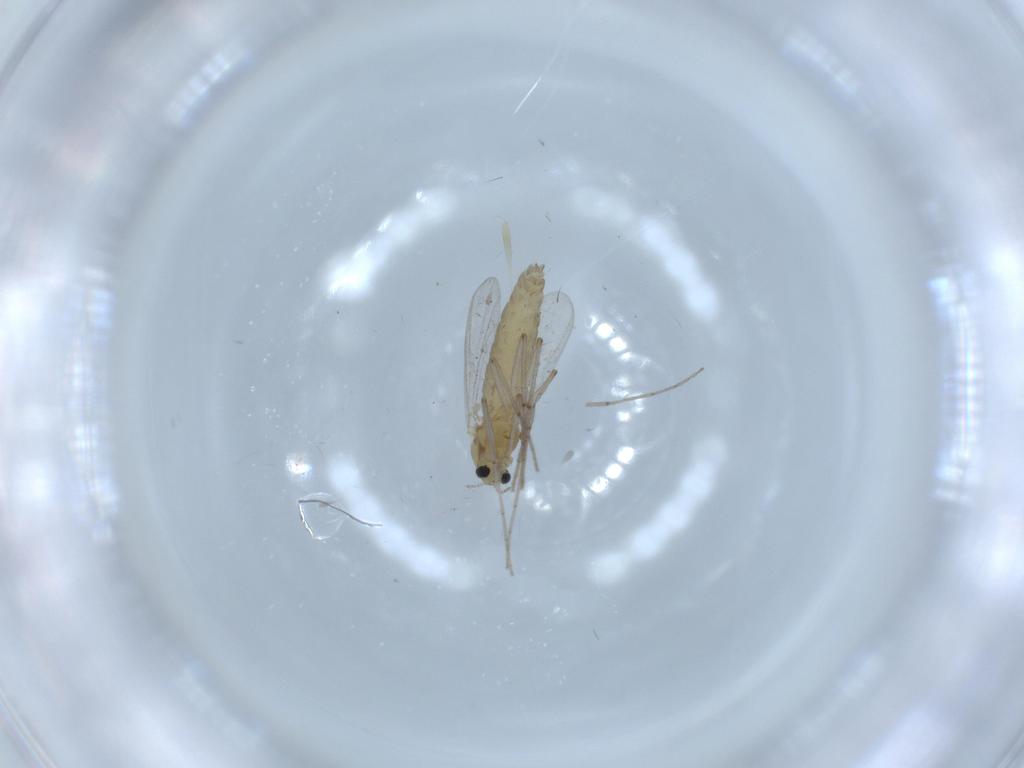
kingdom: Animalia
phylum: Arthropoda
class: Insecta
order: Diptera
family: Chironomidae
